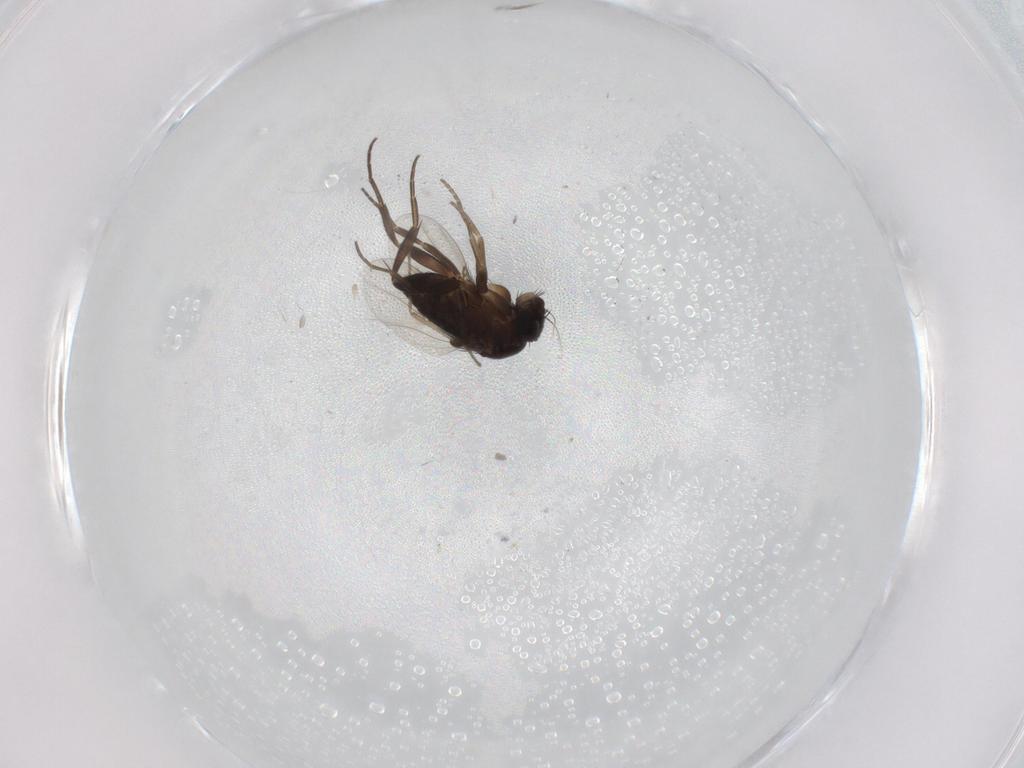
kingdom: Animalia
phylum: Arthropoda
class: Insecta
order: Diptera
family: Phoridae
